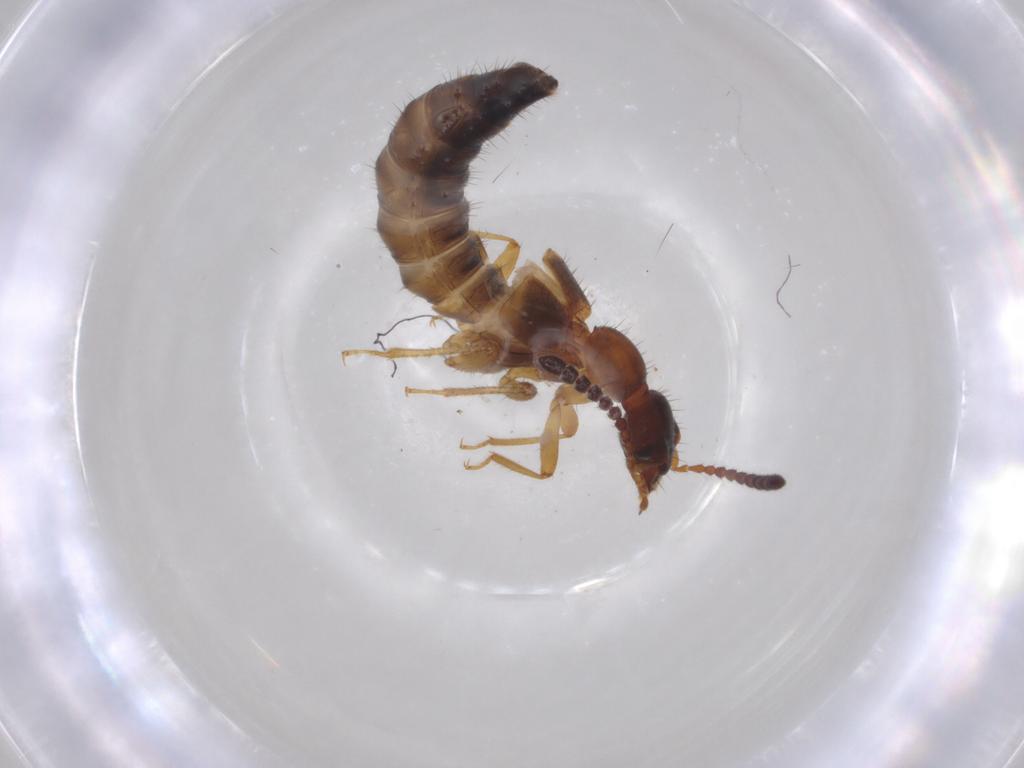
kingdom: Animalia
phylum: Arthropoda
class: Insecta
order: Coleoptera
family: Staphylinidae
